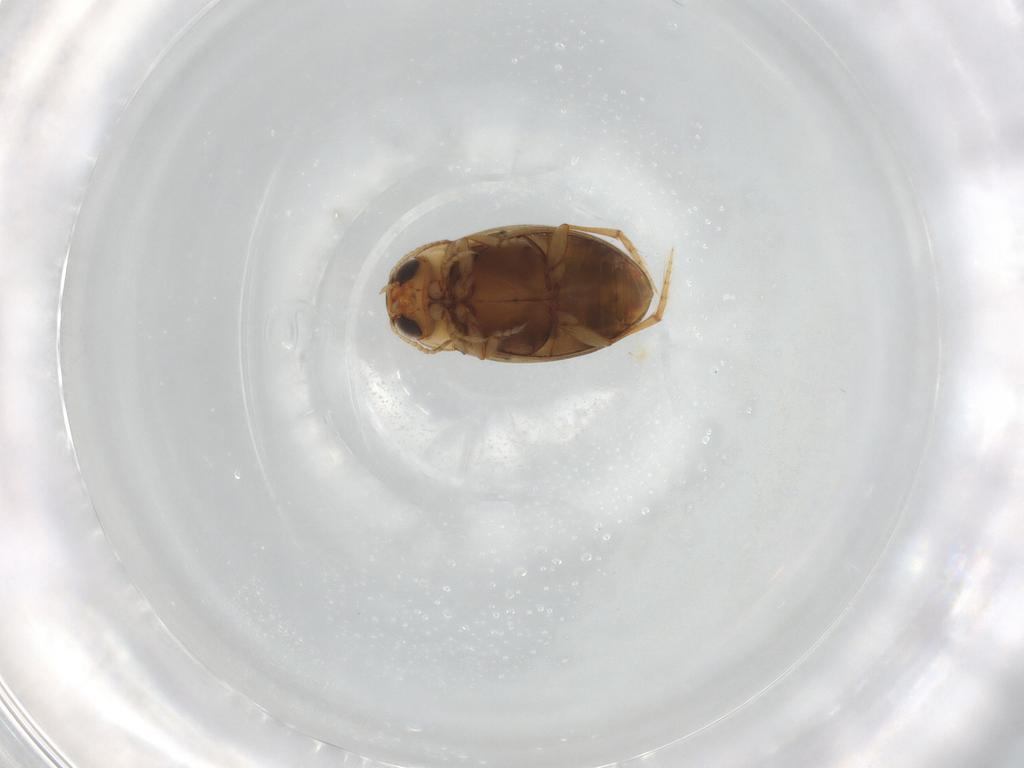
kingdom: Animalia
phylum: Arthropoda
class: Insecta
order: Coleoptera
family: Dytiscidae
